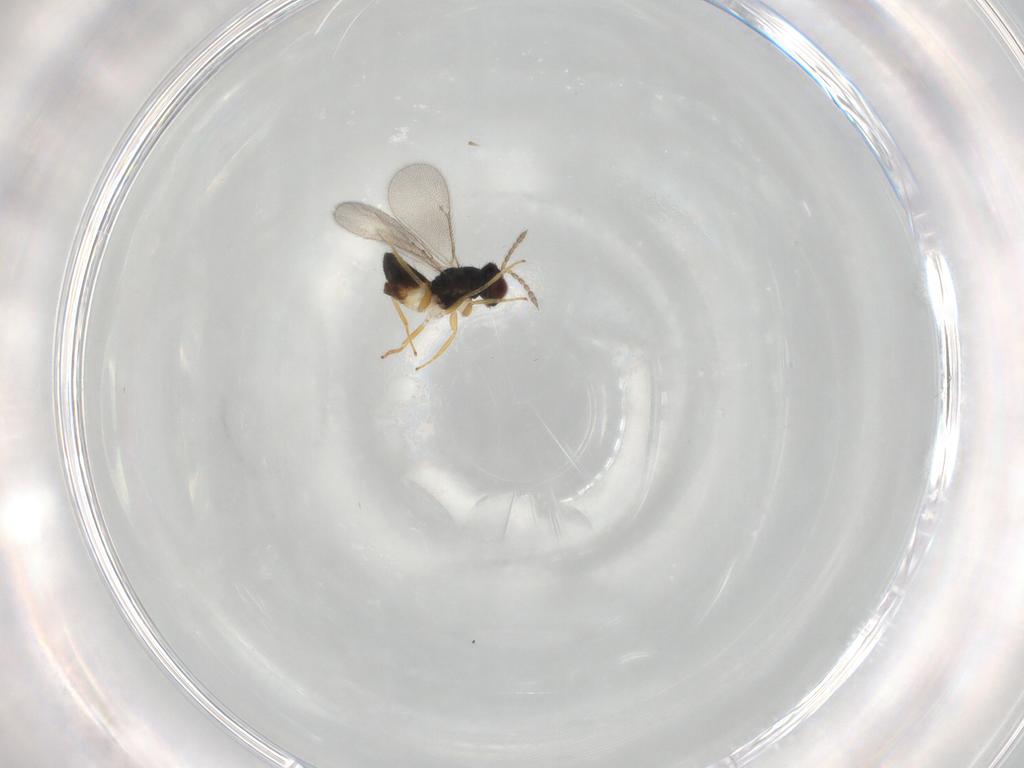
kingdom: Animalia
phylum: Arthropoda
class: Insecta
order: Hymenoptera
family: Eulophidae
